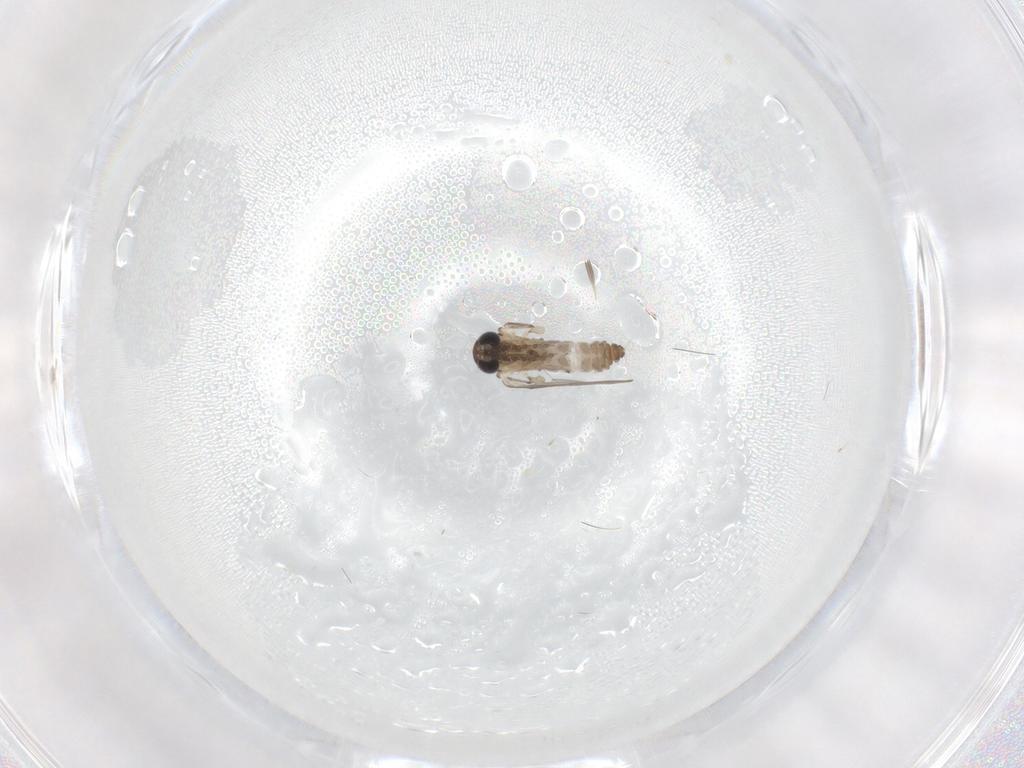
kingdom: Animalia
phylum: Arthropoda
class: Insecta
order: Diptera
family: Psychodidae
